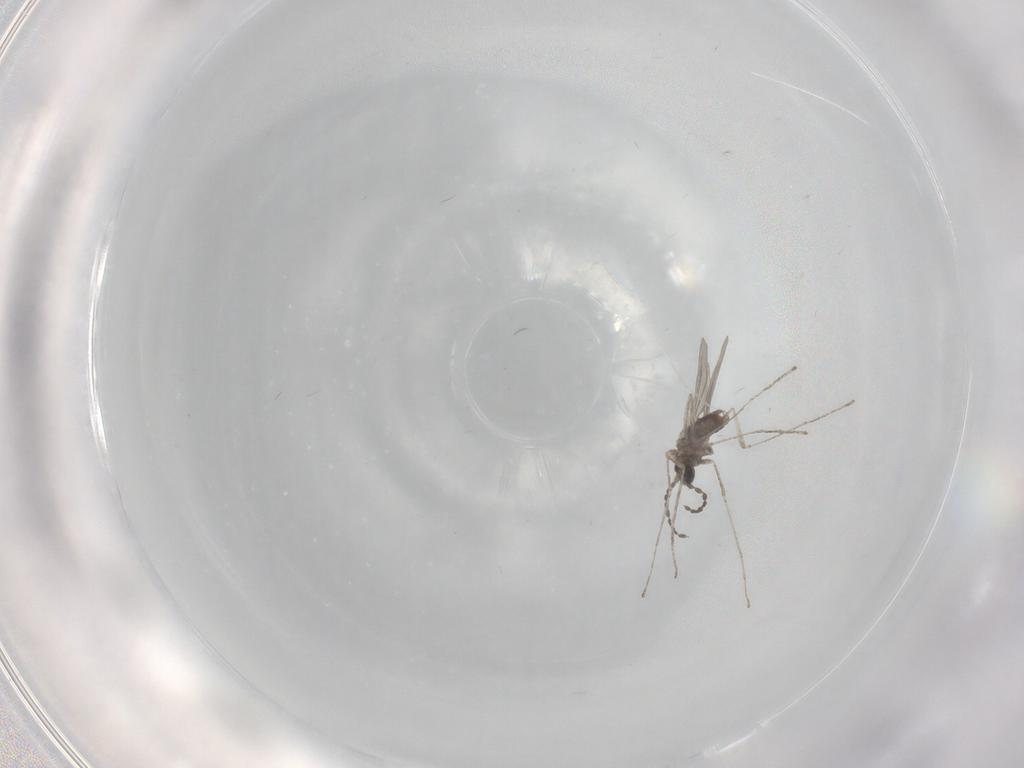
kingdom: Animalia
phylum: Arthropoda
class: Insecta
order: Diptera
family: Cecidomyiidae
